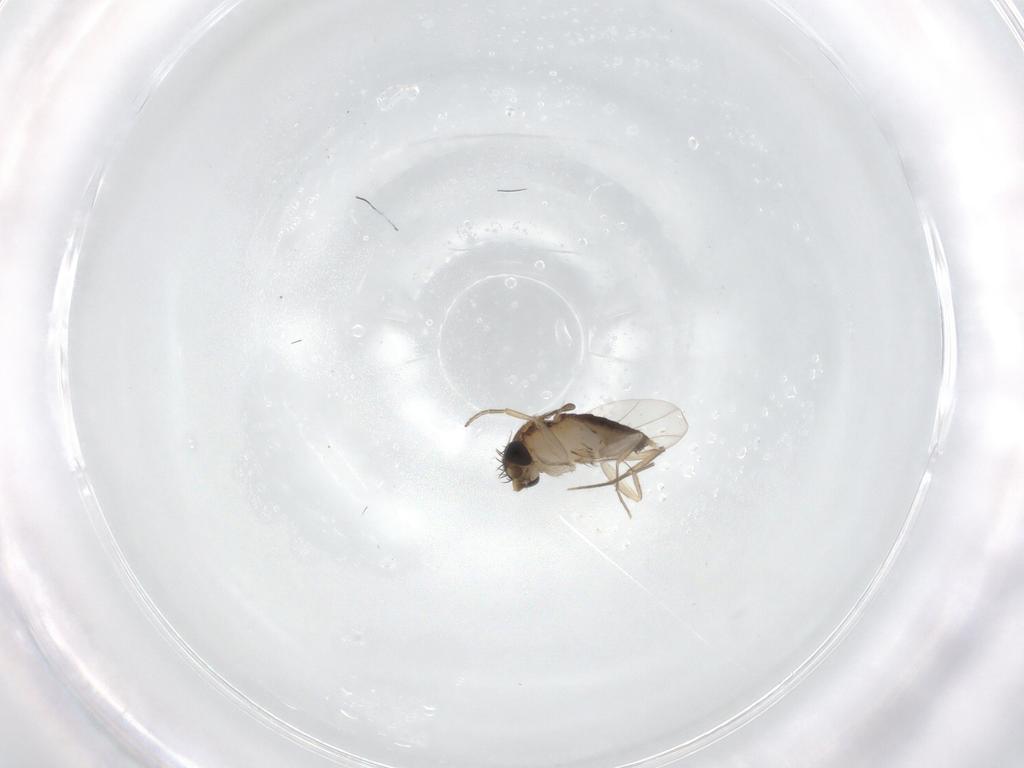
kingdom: Animalia
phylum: Arthropoda
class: Insecta
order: Diptera
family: Phoridae
